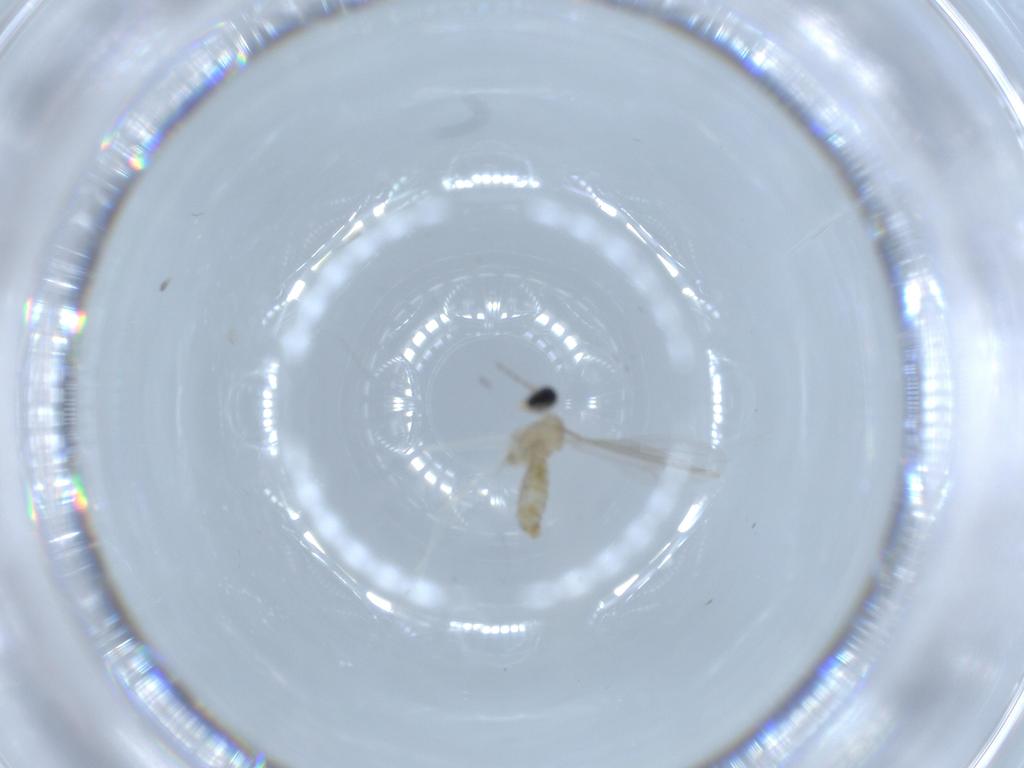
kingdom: Animalia
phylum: Arthropoda
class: Insecta
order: Diptera
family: Cecidomyiidae
